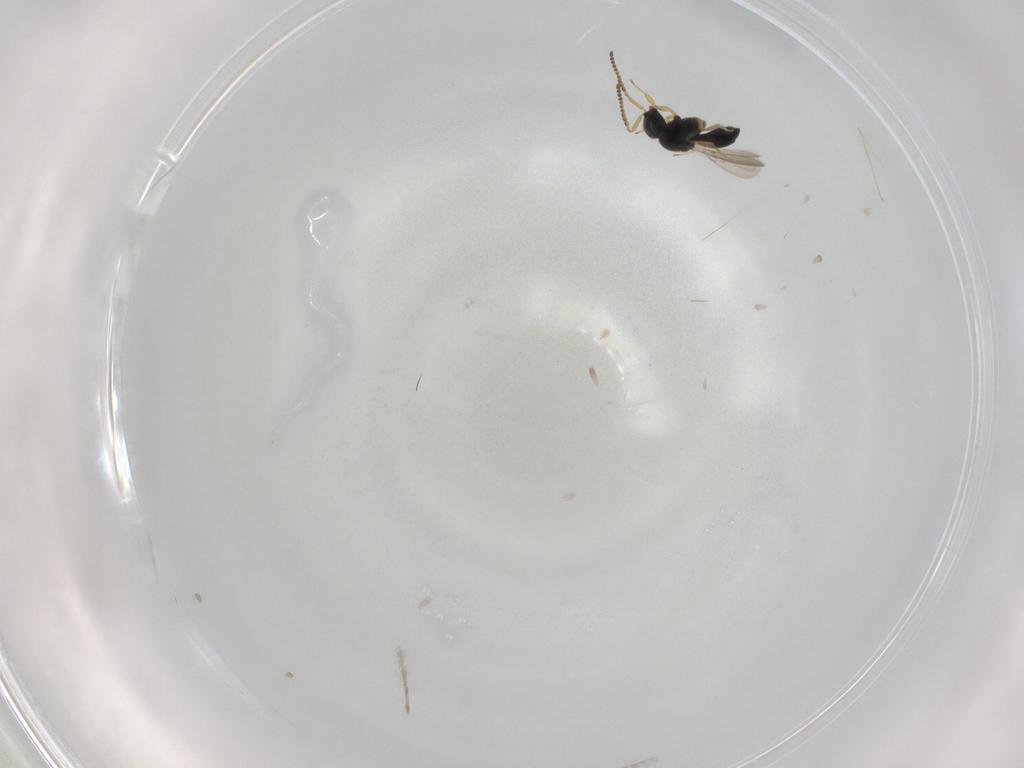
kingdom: Animalia
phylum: Arthropoda
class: Insecta
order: Hymenoptera
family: Scelionidae
